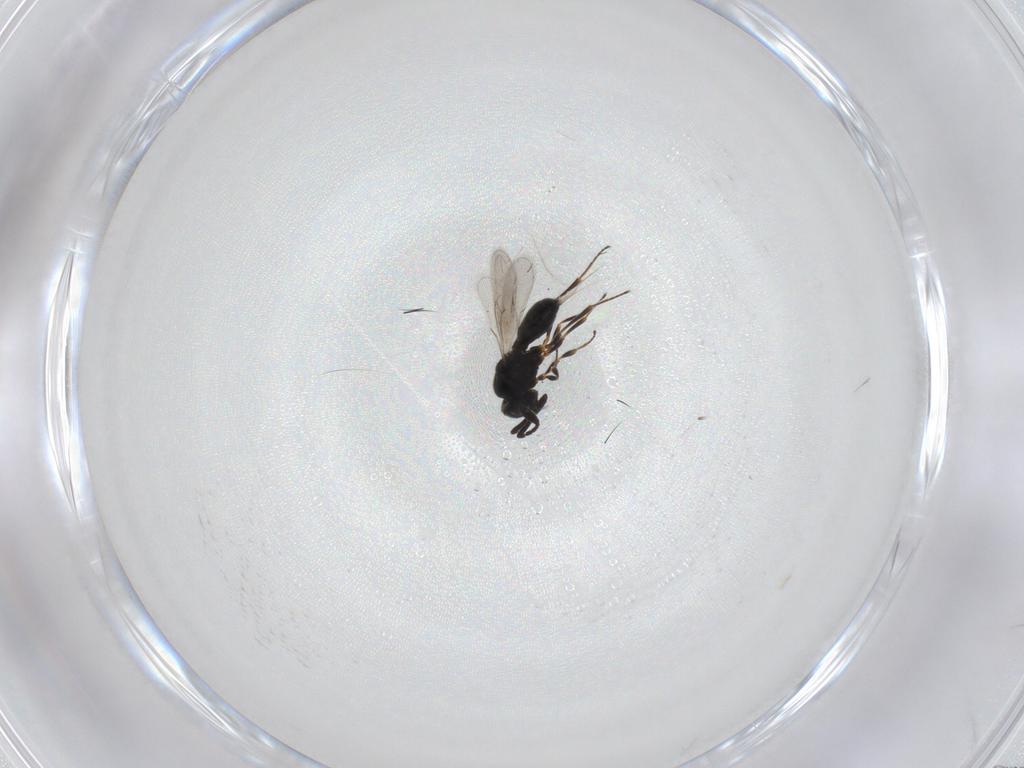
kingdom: Animalia
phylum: Arthropoda
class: Insecta
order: Hymenoptera
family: Scelionidae
